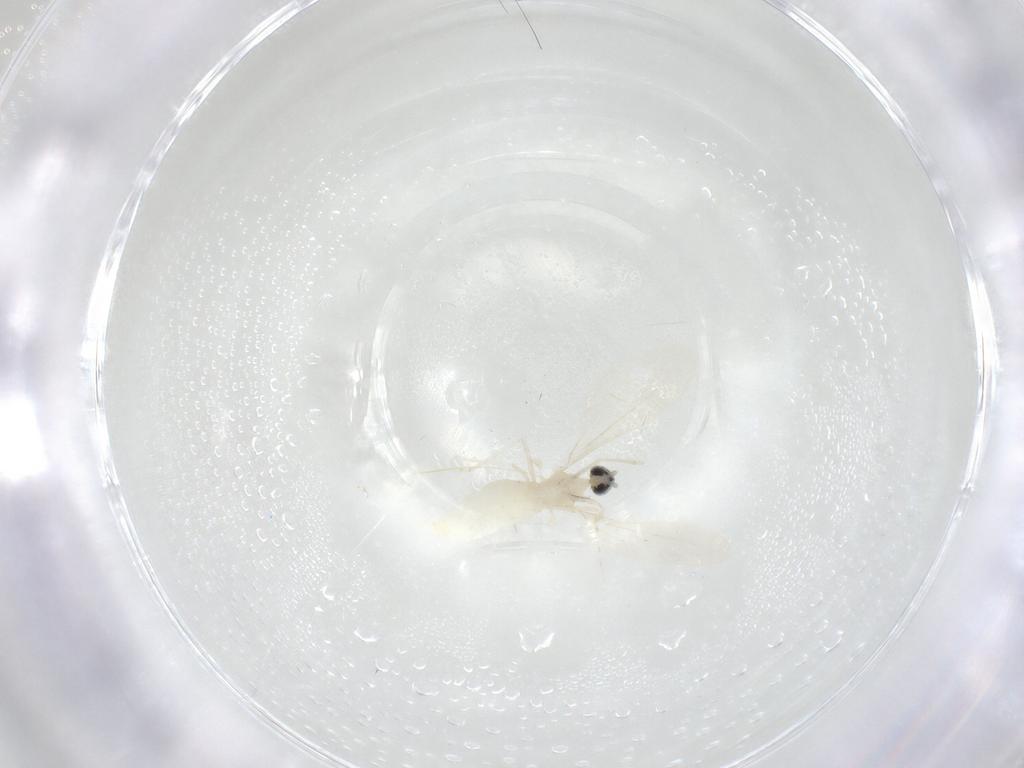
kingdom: Animalia
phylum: Arthropoda
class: Insecta
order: Diptera
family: Cecidomyiidae
